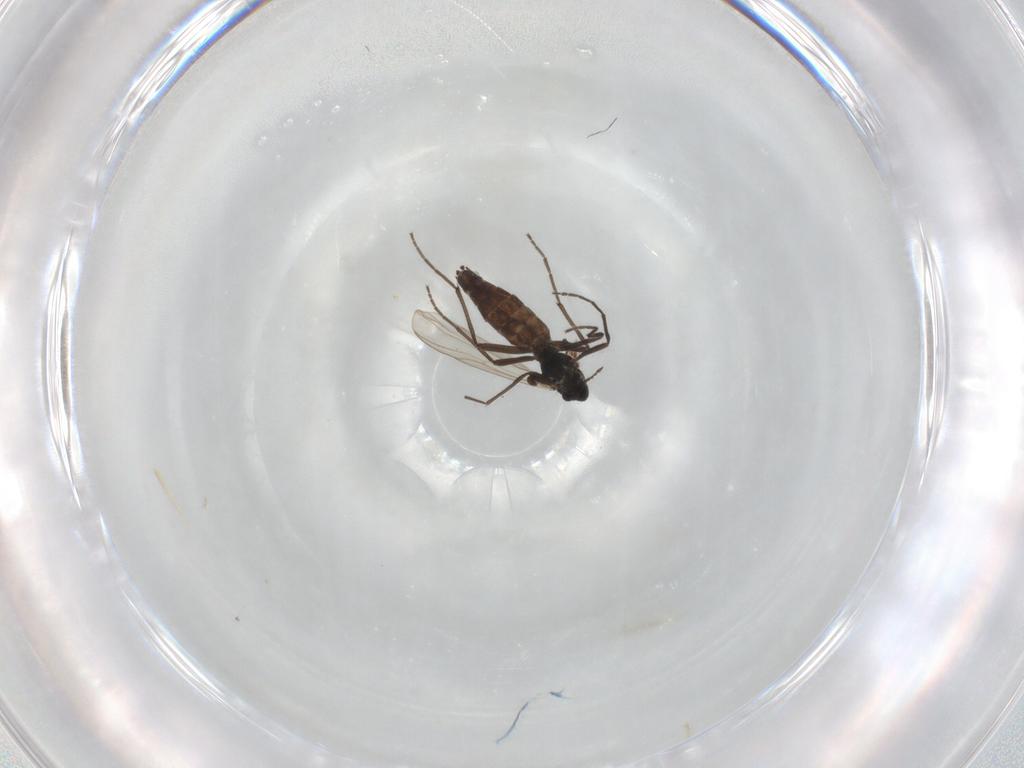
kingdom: Animalia
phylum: Arthropoda
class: Insecta
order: Diptera
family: Chironomidae
